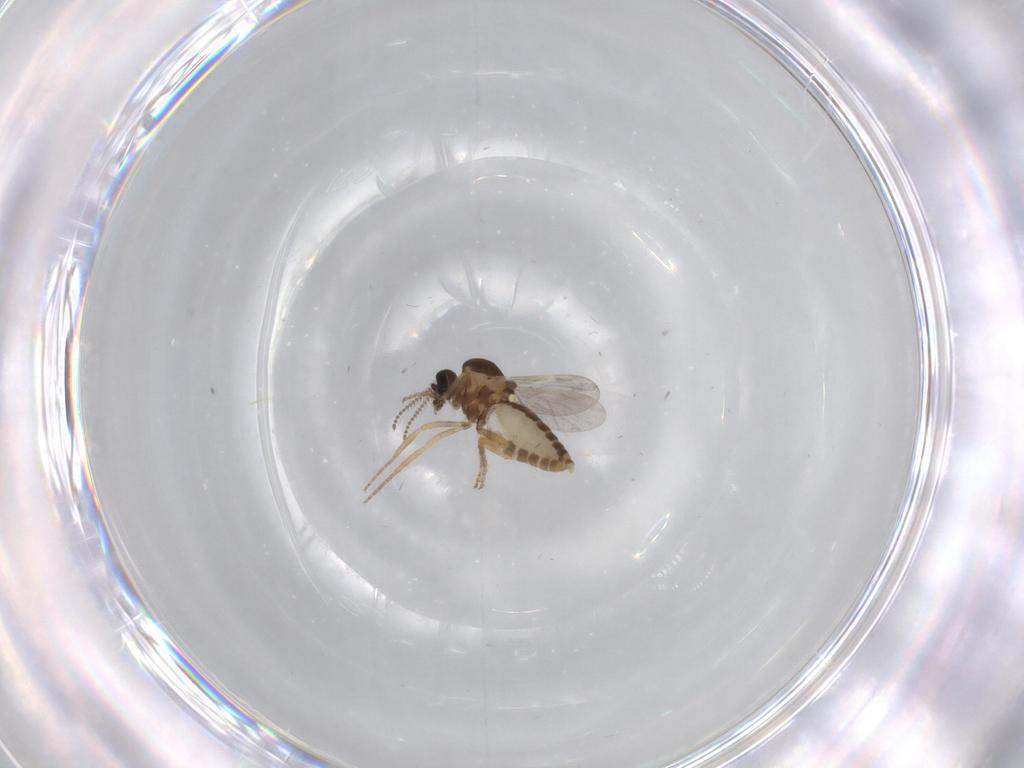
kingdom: Animalia
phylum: Arthropoda
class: Insecta
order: Diptera
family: Ceratopogonidae
